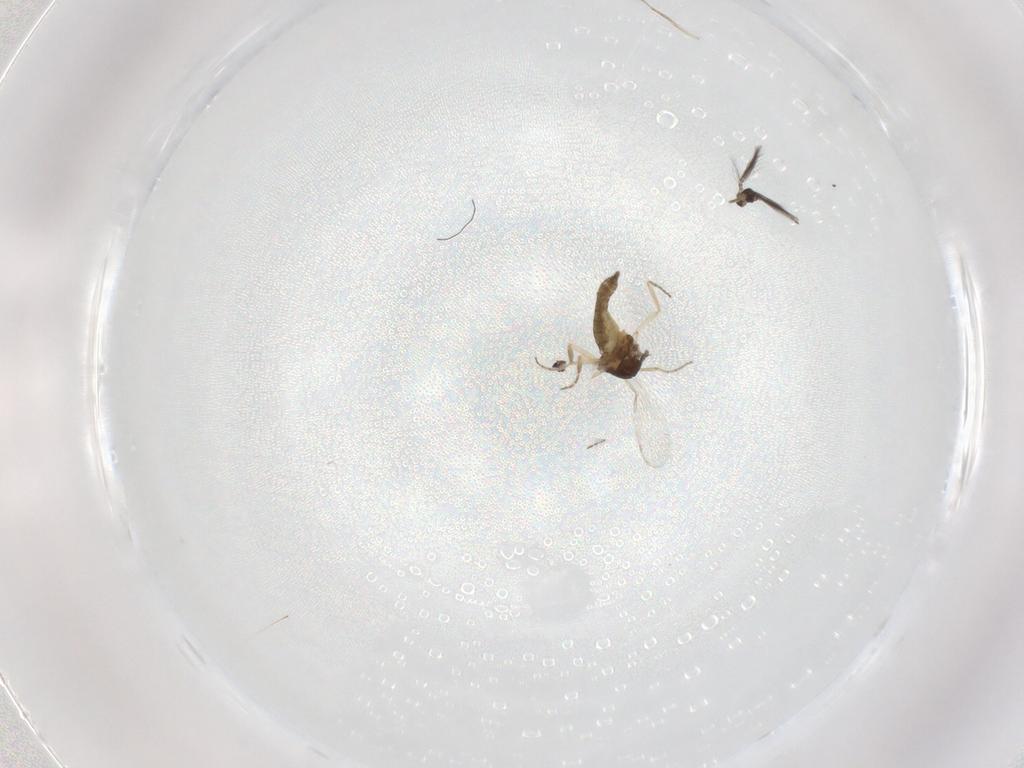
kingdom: Animalia
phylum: Arthropoda
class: Insecta
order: Diptera
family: Ceratopogonidae
